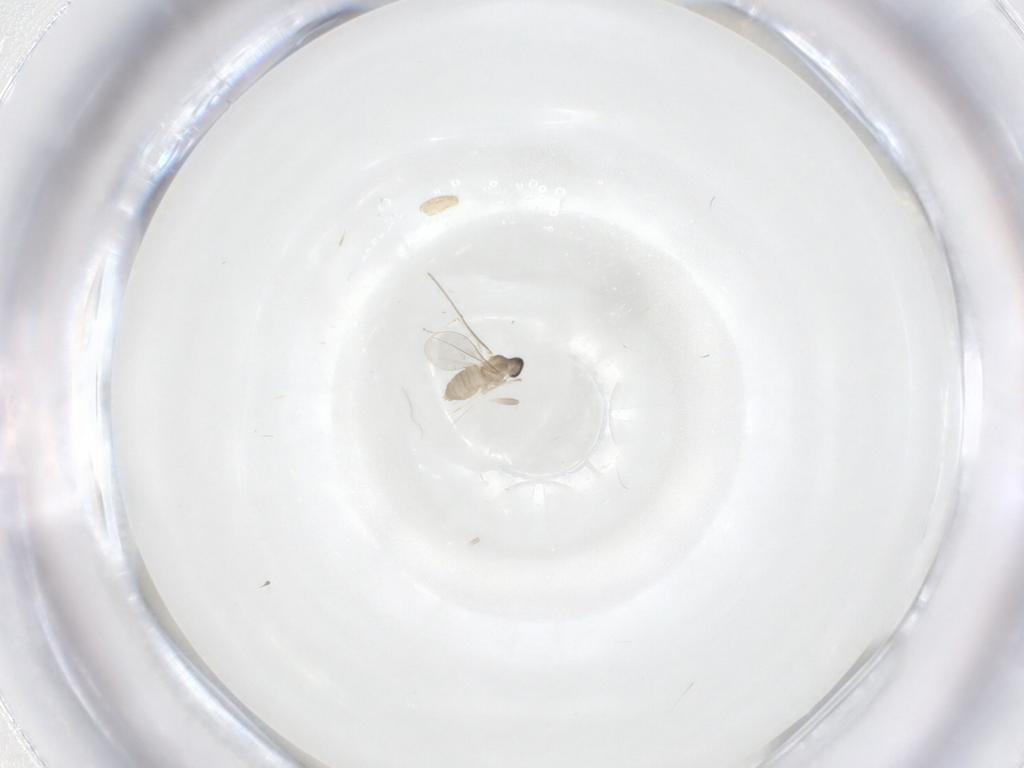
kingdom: Animalia
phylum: Arthropoda
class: Insecta
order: Diptera
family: Cecidomyiidae
